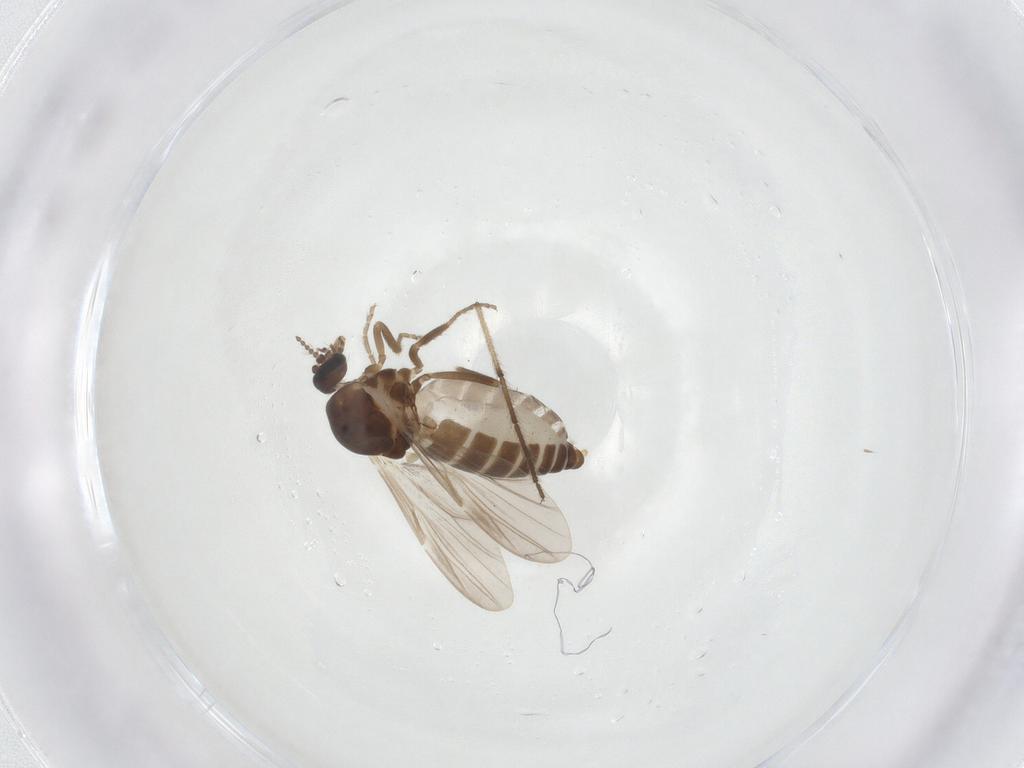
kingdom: Animalia
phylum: Arthropoda
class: Insecta
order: Diptera
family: Ceratopogonidae
